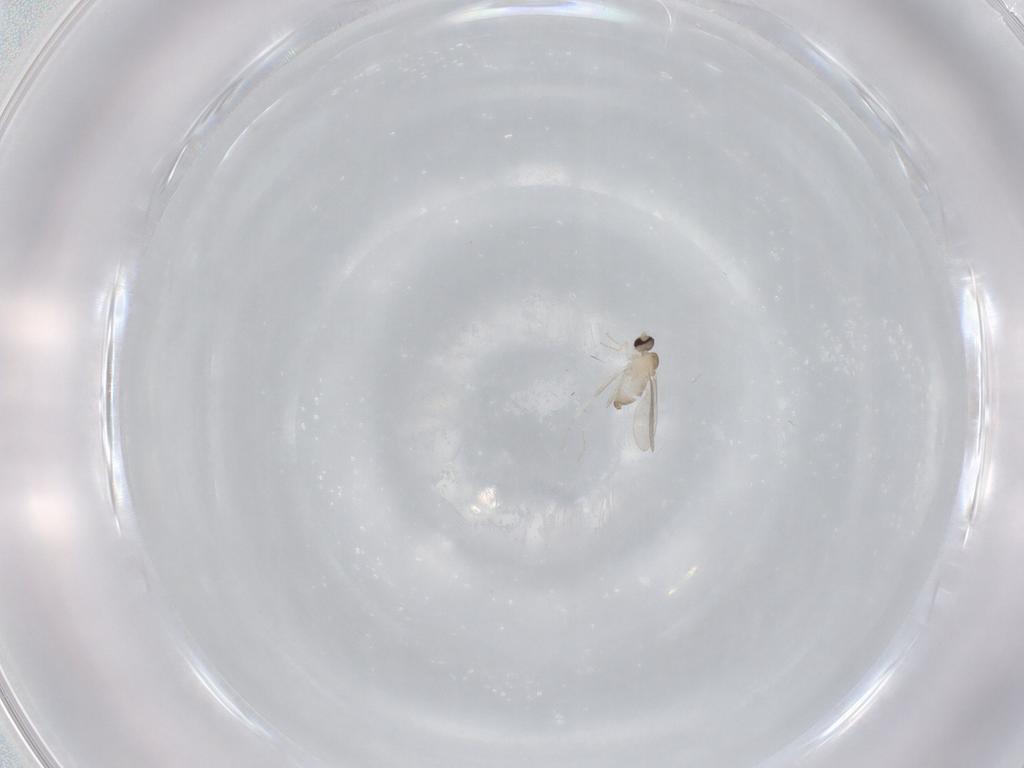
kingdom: Animalia
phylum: Arthropoda
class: Insecta
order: Diptera
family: Cecidomyiidae
